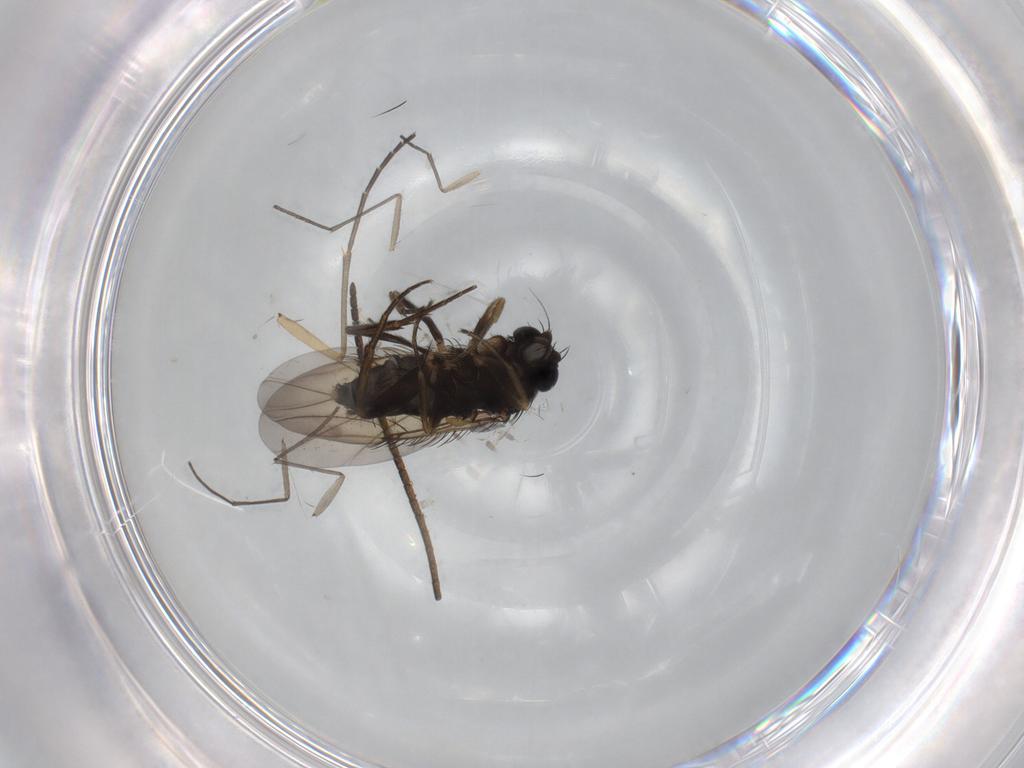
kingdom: Animalia
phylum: Arthropoda
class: Insecta
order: Diptera
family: Phoridae
